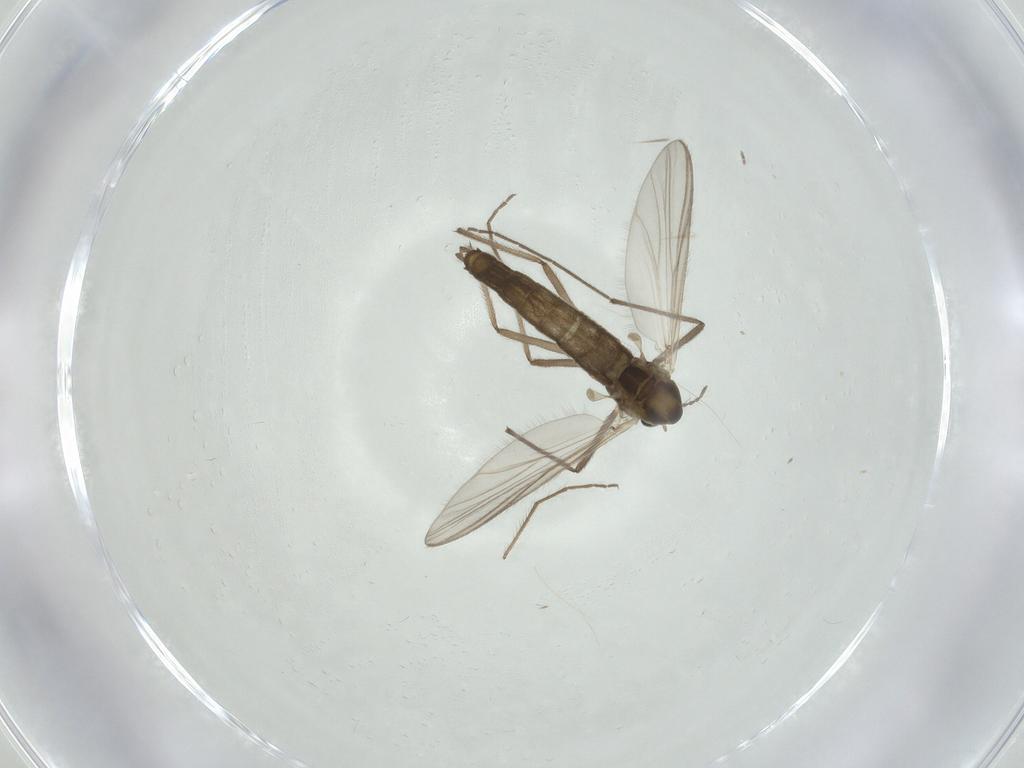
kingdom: Animalia
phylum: Arthropoda
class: Insecta
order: Diptera
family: Chironomidae
